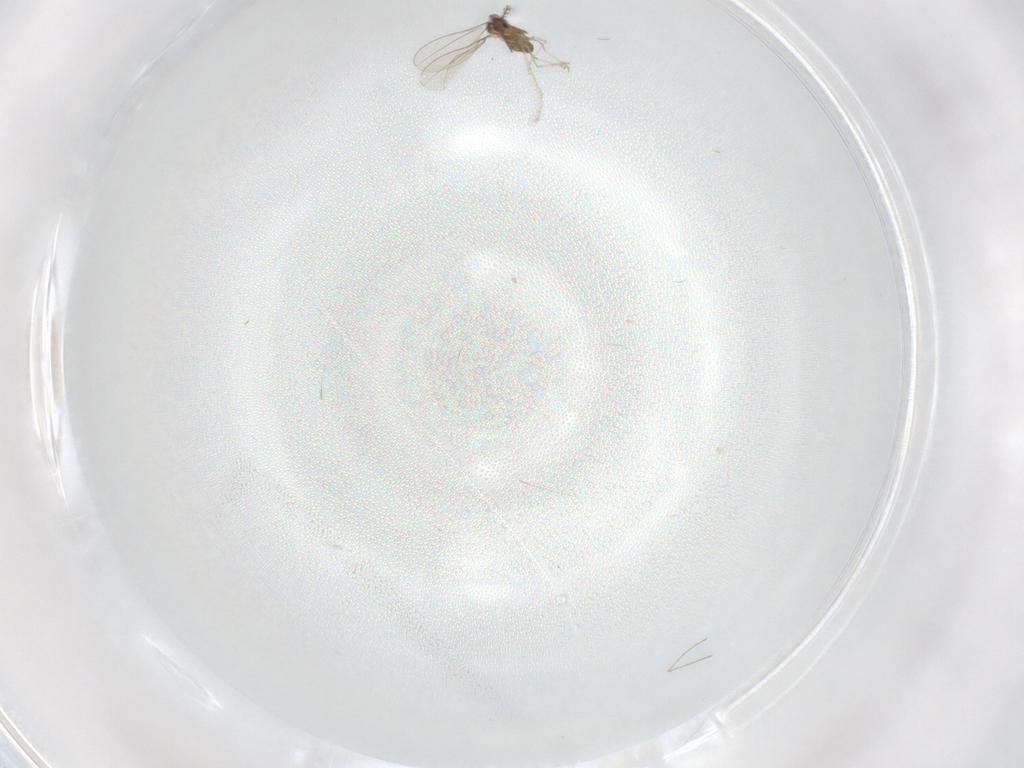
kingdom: Animalia
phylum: Arthropoda
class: Insecta
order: Diptera
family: Cecidomyiidae
